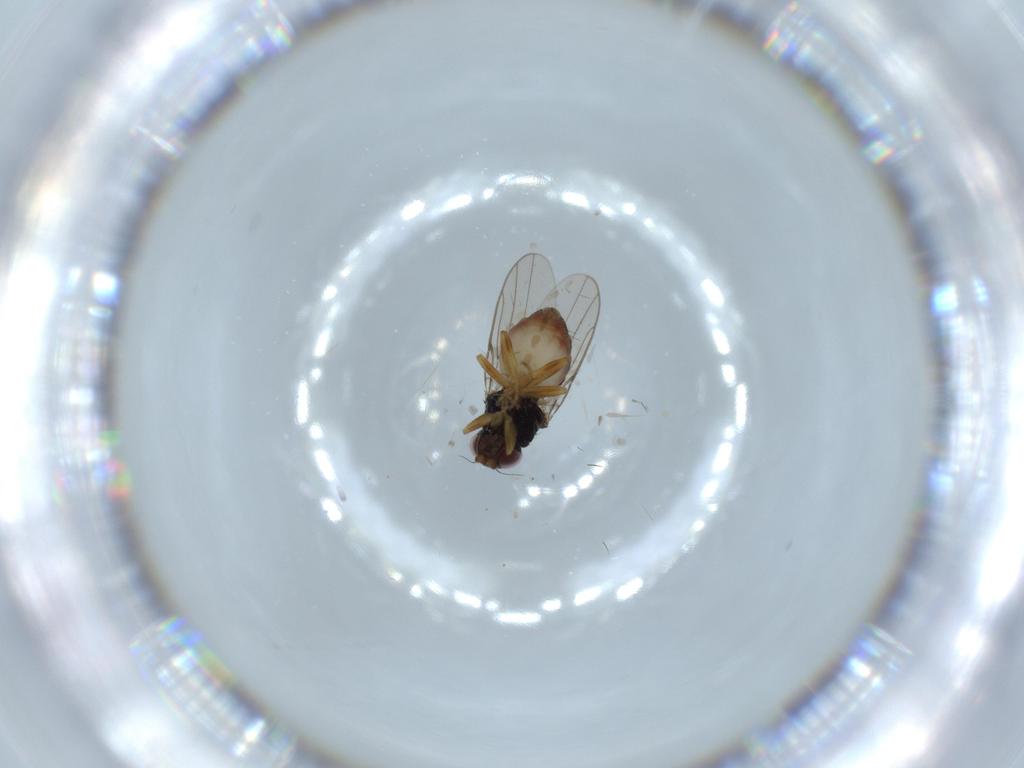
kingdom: Animalia
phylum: Arthropoda
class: Insecta
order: Diptera
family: Chloropidae
